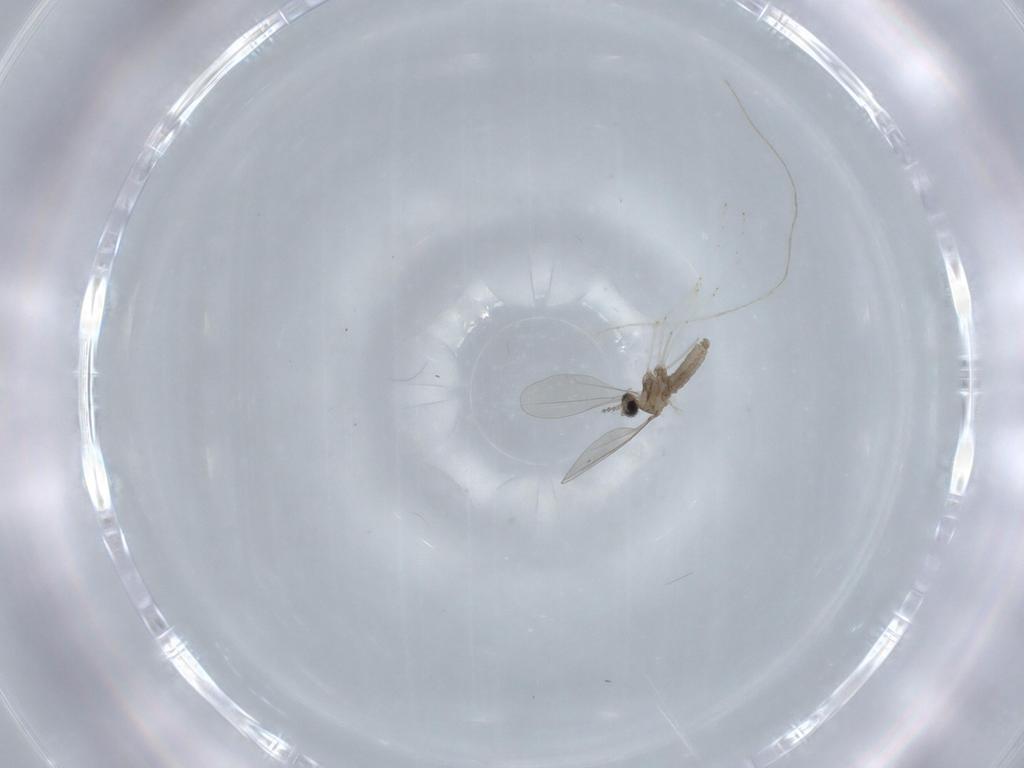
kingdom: Animalia
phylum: Arthropoda
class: Insecta
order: Diptera
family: Cecidomyiidae
